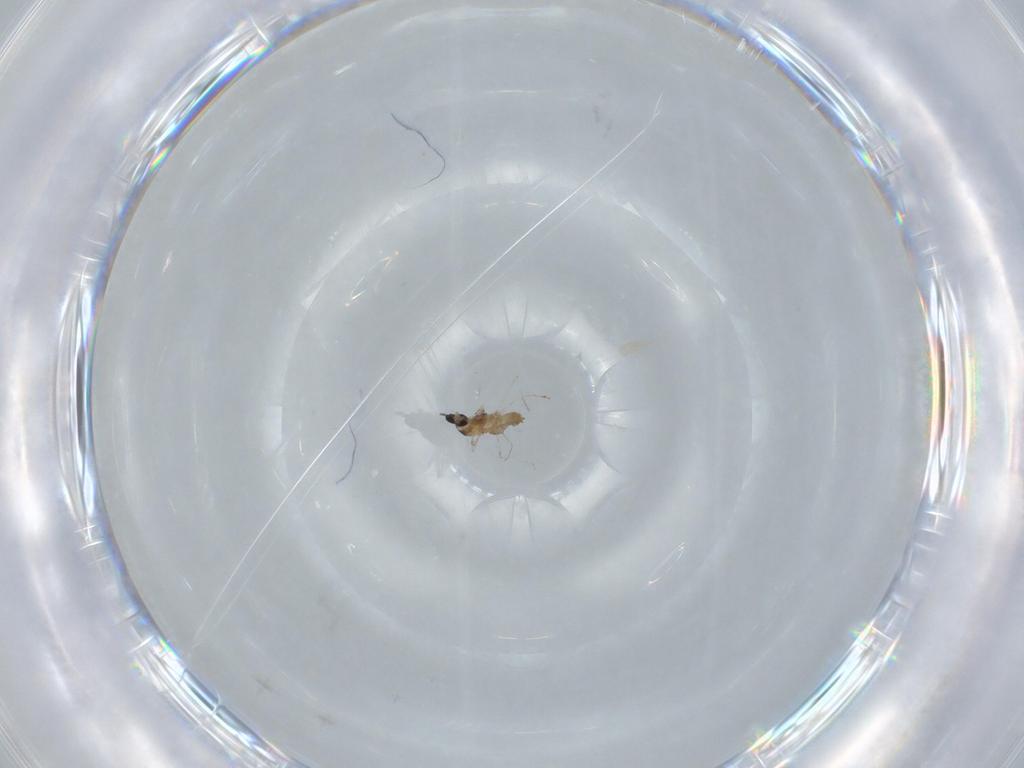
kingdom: Animalia
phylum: Arthropoda
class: Insecta
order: Diptera
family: Cecidomyiidae
